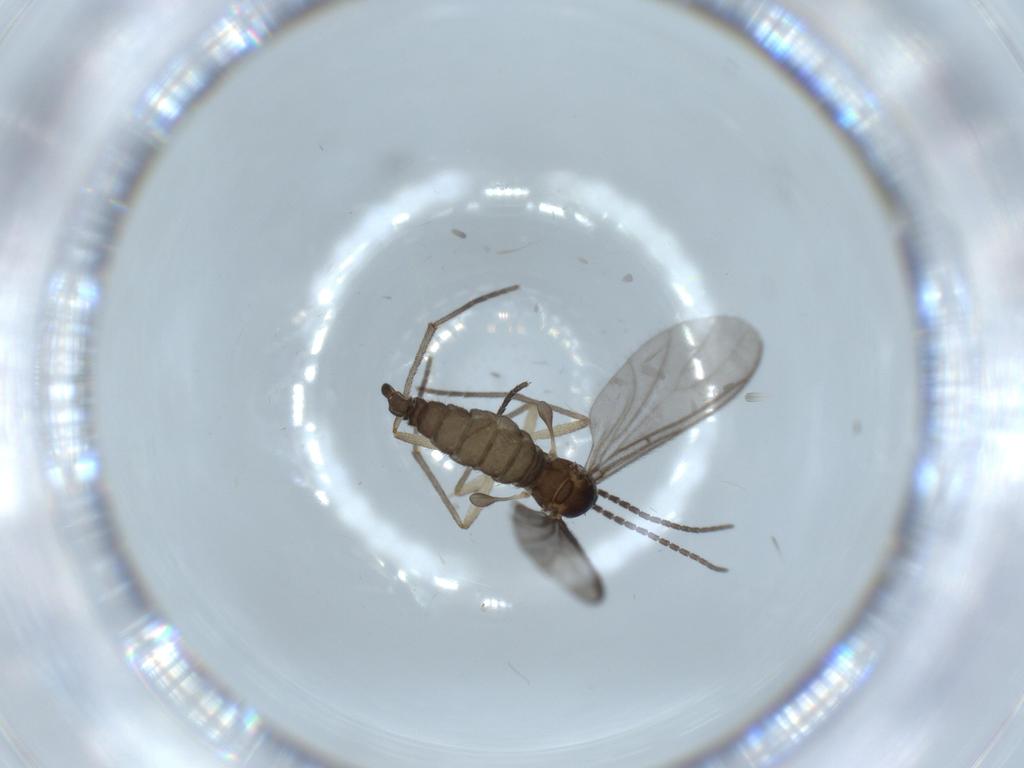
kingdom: Animalia
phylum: Arthropoda
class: Insecta
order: Diptera
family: Sciaridae
